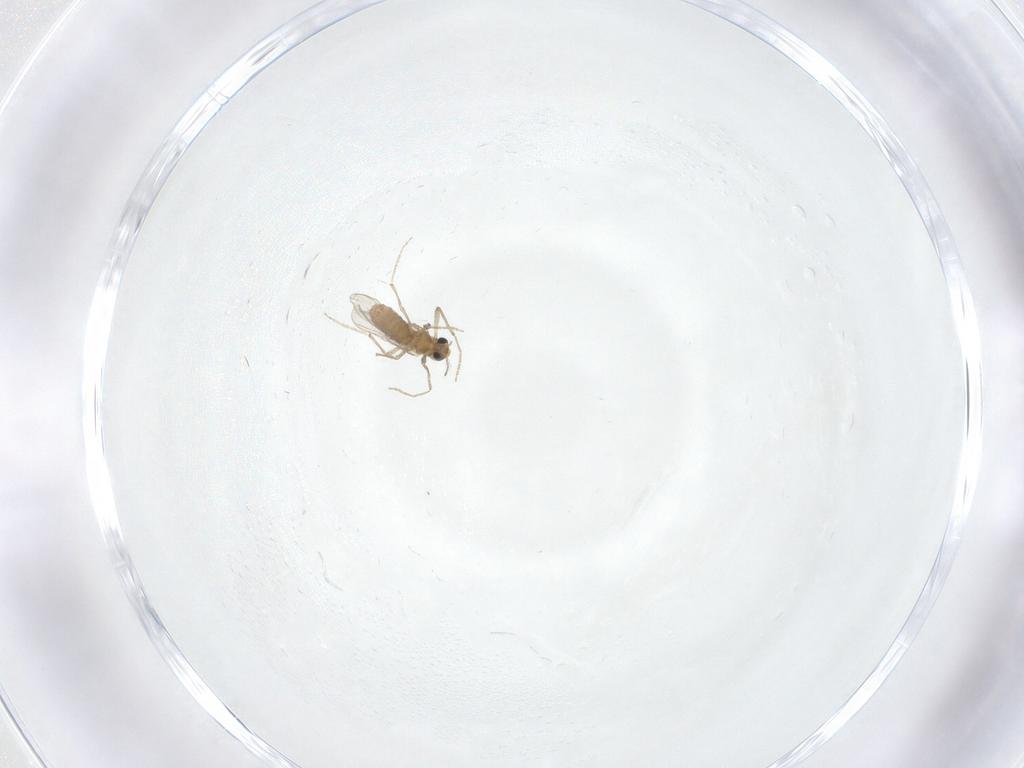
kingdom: Animalia
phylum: Arthropoda
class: Insecta
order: Diptera
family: Chironomidae
